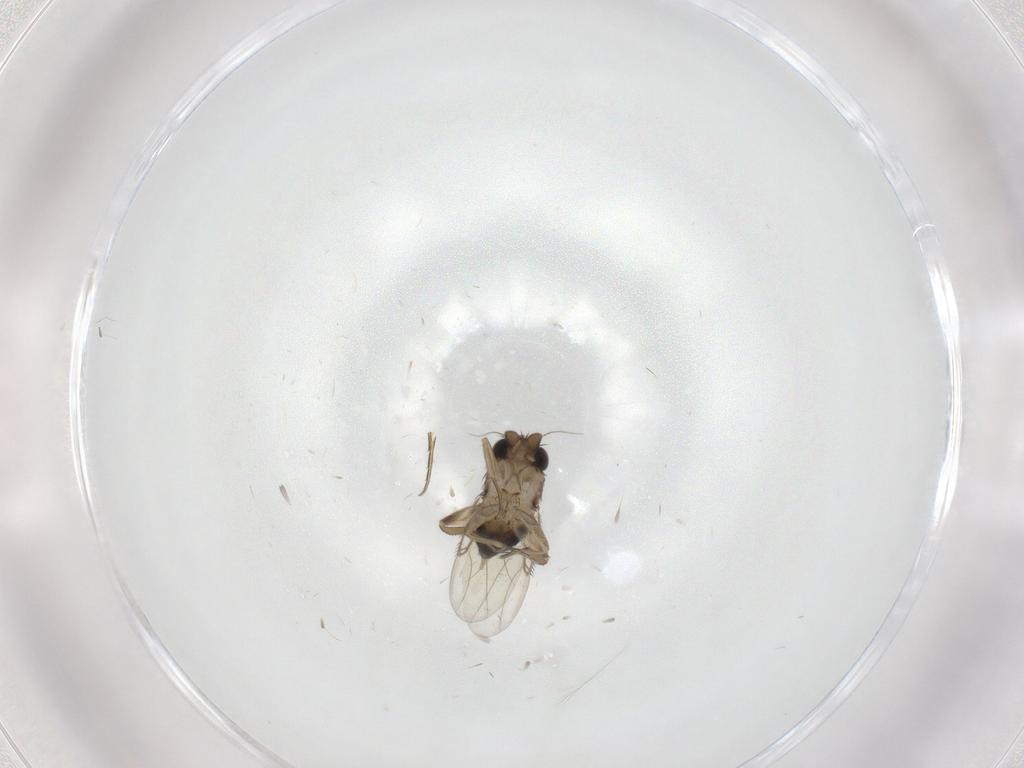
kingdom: Animalia
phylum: Arthropoda
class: Insecta
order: Diptera
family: Phoridae
